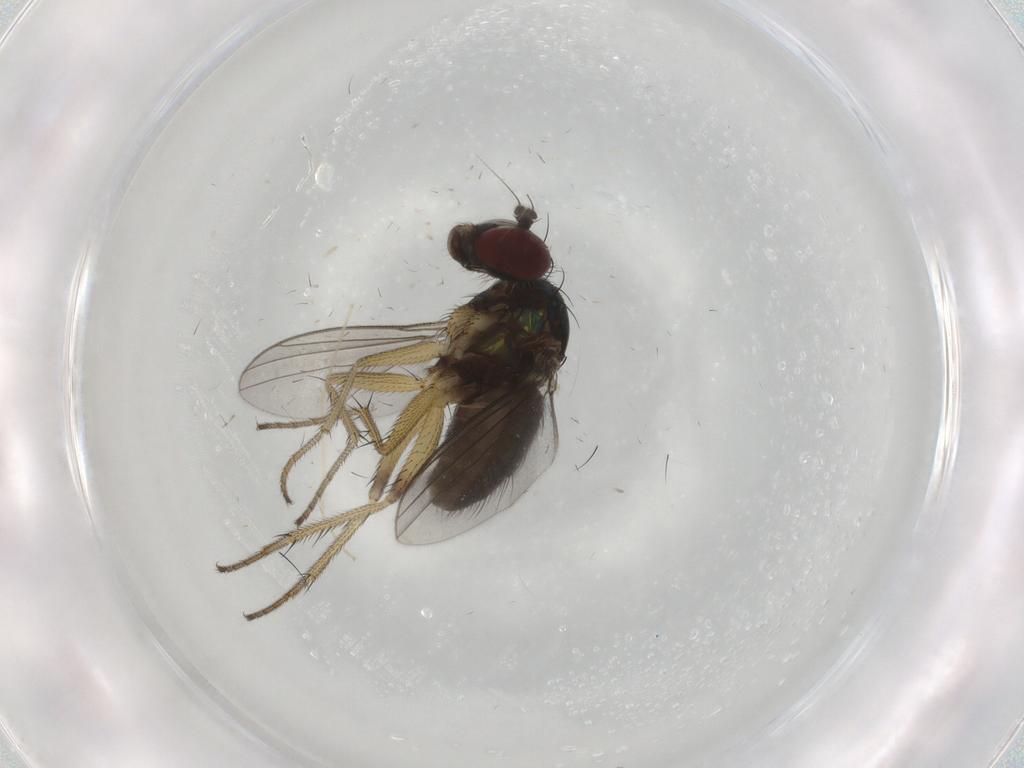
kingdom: Animalia
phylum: Arthropoda
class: Insecta
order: Diptera
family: Dolichopodidae
